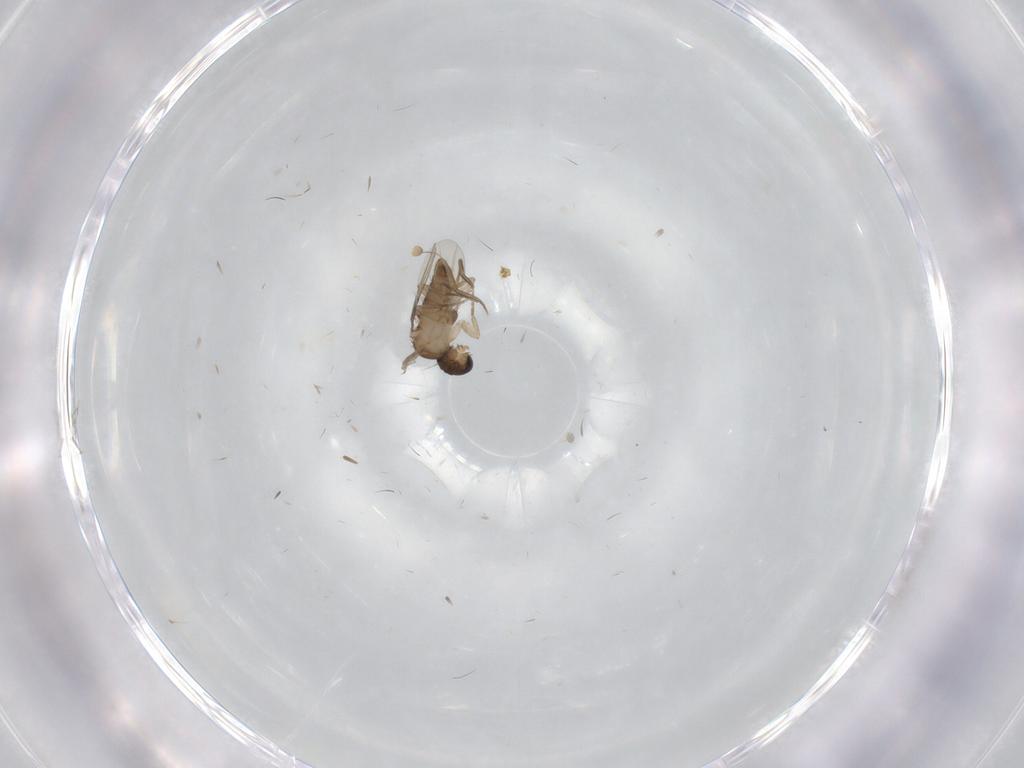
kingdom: Animalia
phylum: Arthropoda
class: Insecta
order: Diptera
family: Phoridae
